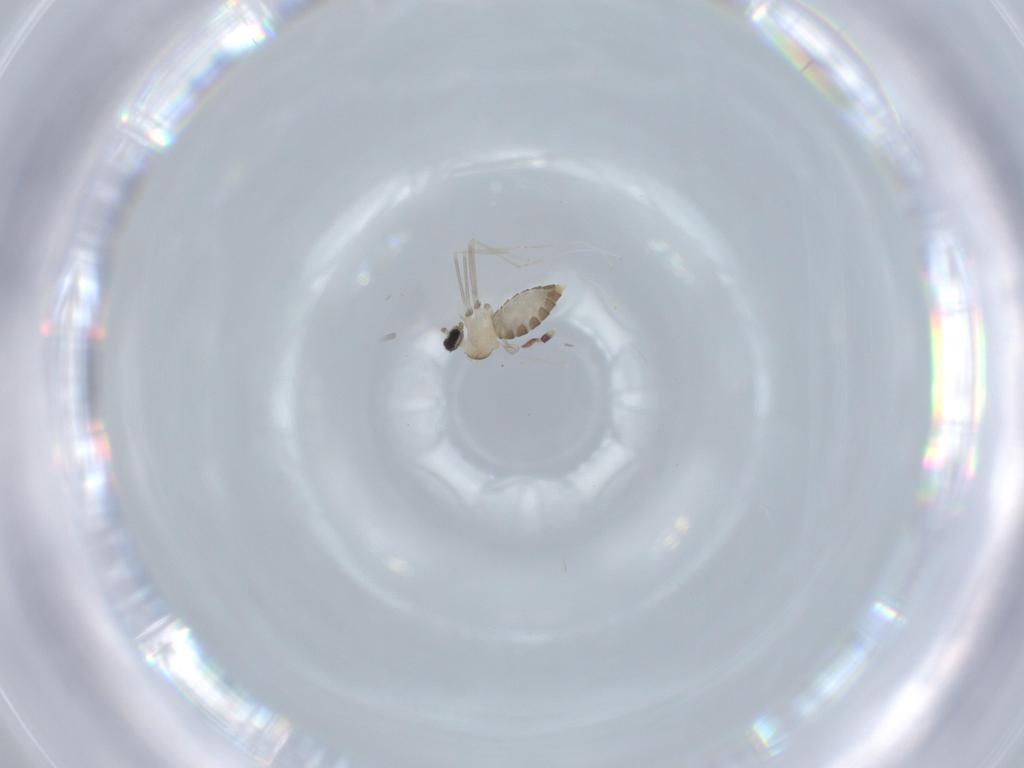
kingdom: Animalia
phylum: Arthropoda
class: Insecta
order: Diptera
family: Cecidomyiidae
